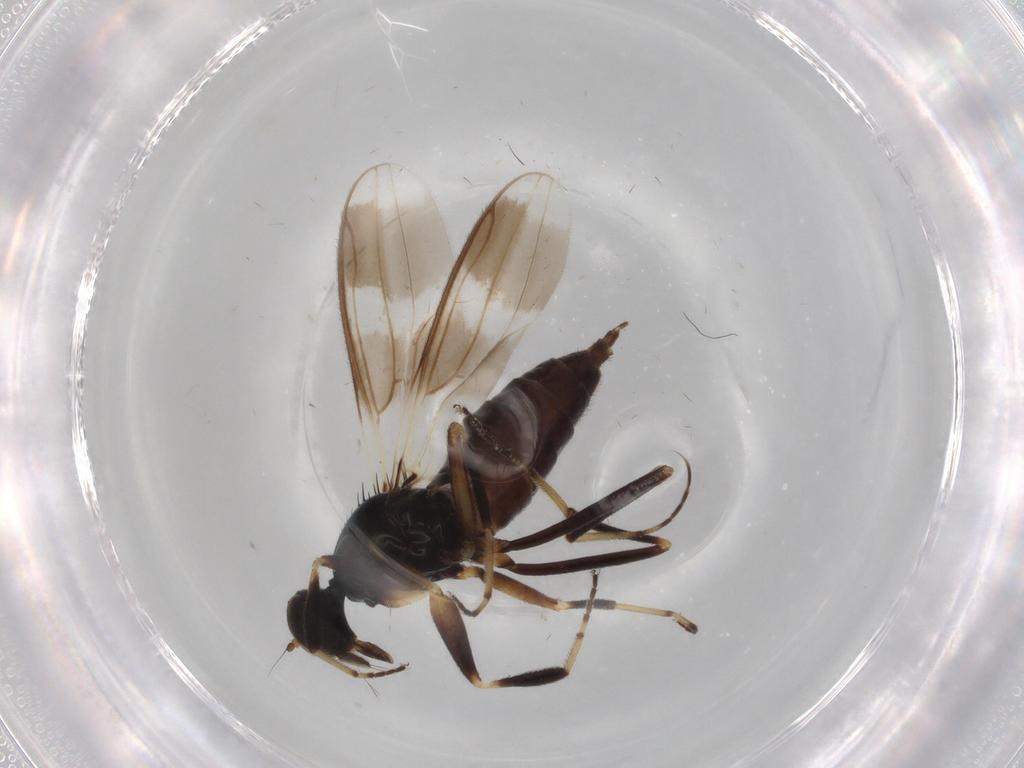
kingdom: Animalia
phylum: Arthropoda
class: Insecta
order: Diptera
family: Hybotidae
